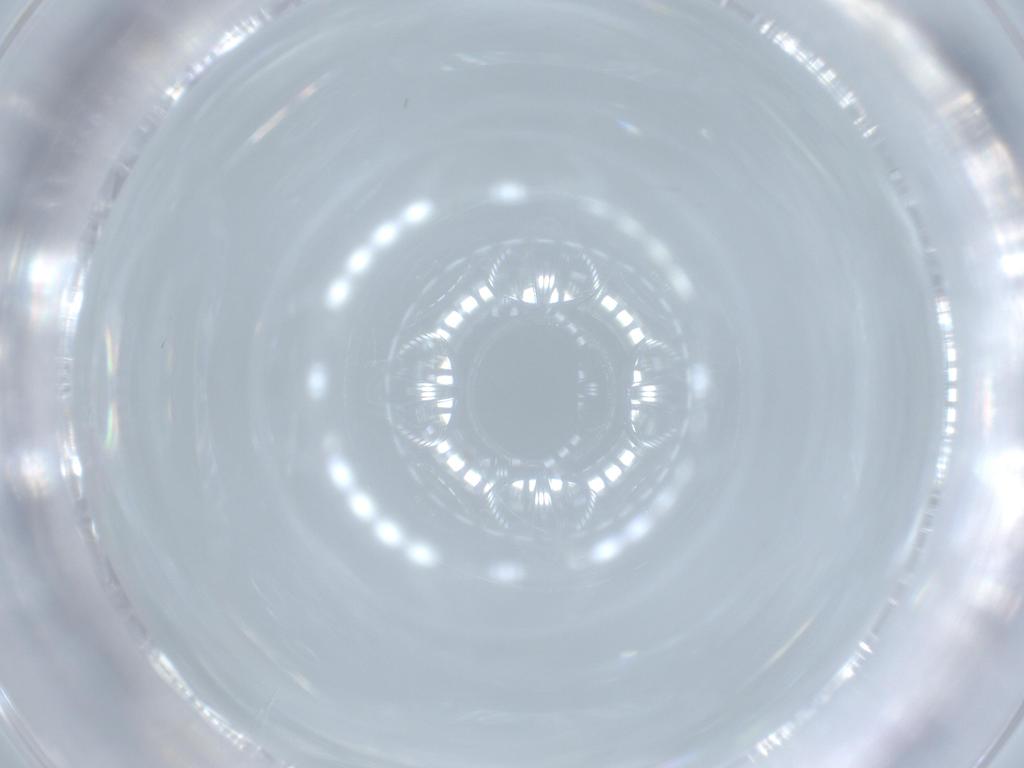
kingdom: Animalia
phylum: Arthropoda
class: Insecta
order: Hymenoptera
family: Scelionidae
